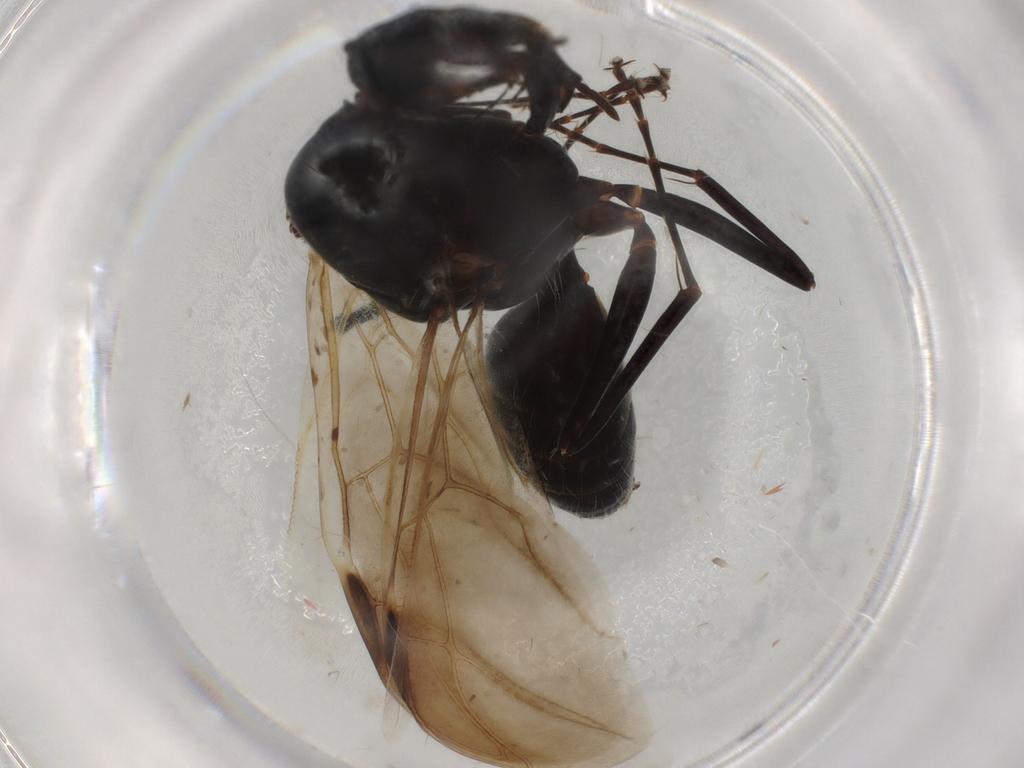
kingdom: Animalia
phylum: Arthropoda
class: Insecta
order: Hymenoptera
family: Formicidae
